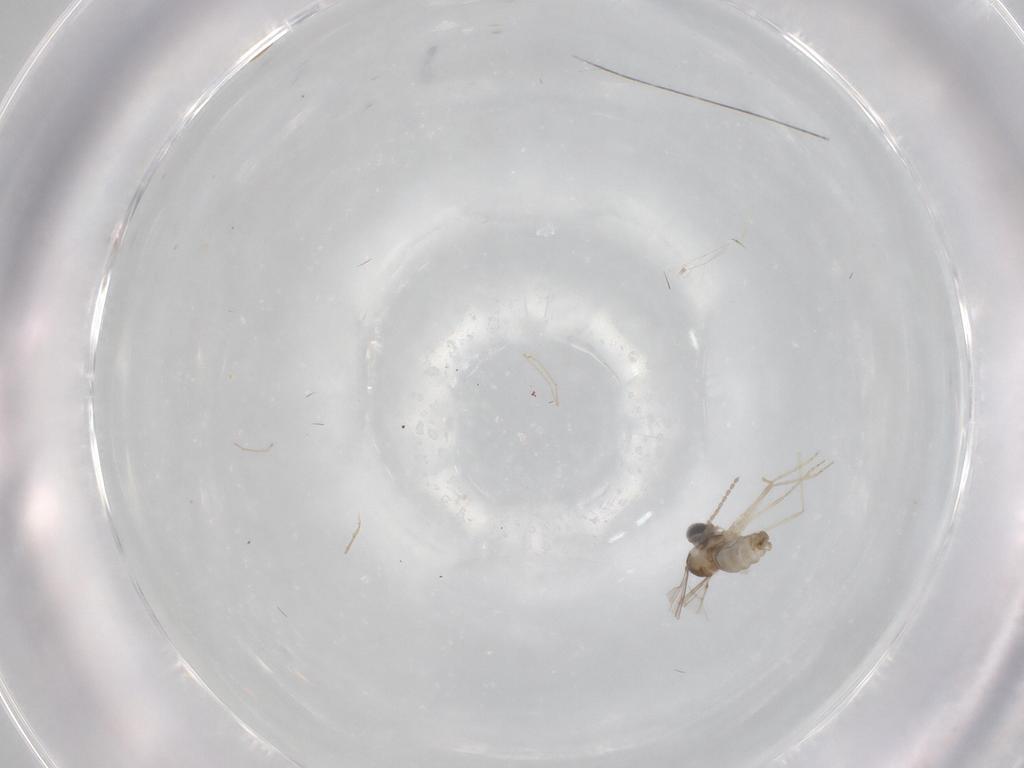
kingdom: Animalia
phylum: Arthropoda
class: Insecta
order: Diptera
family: Cecidomyiidae
